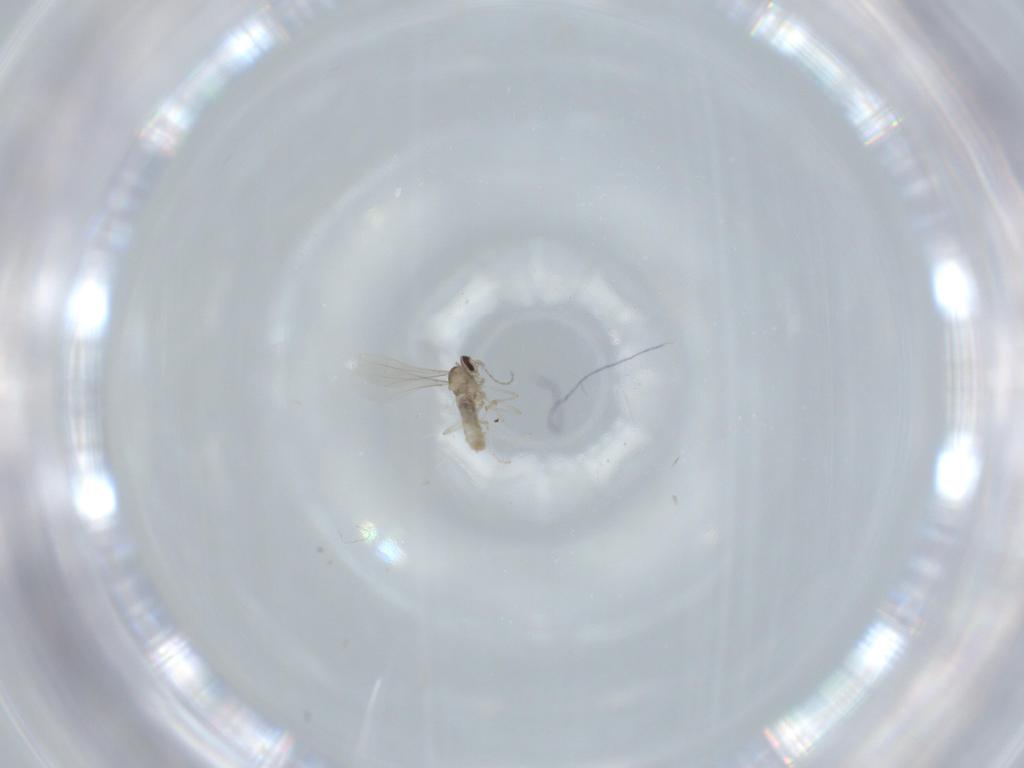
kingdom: Animalia
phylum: Arthropoda
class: Insecta
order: Diptera
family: Cecidomyiidae
